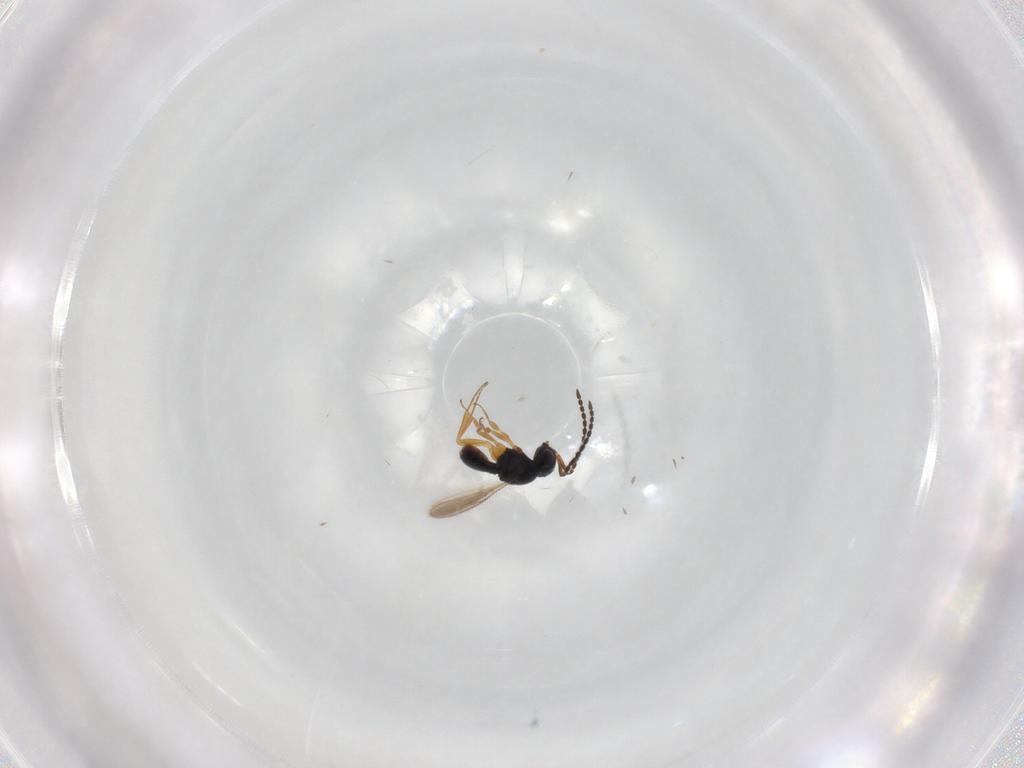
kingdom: Animalia
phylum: Arthropoda
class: Insecta
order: Hymenoptera
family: Scelionidae
